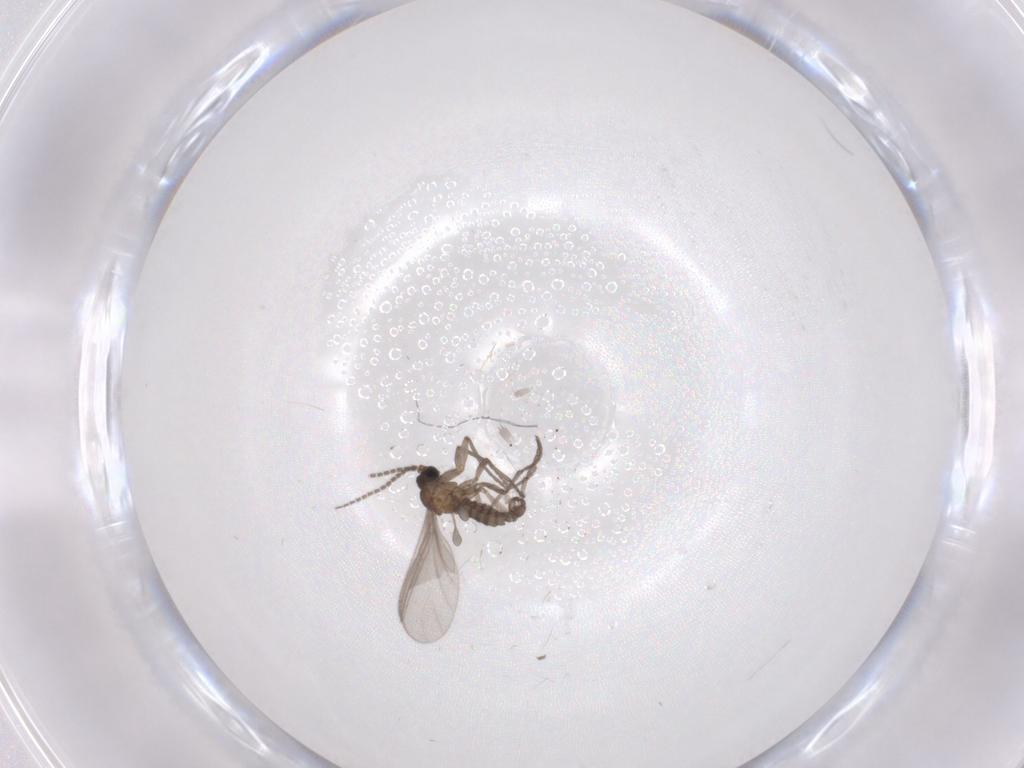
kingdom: Animalia
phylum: Arthropoda
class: Insecta
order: Diptera
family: Sciaridae
